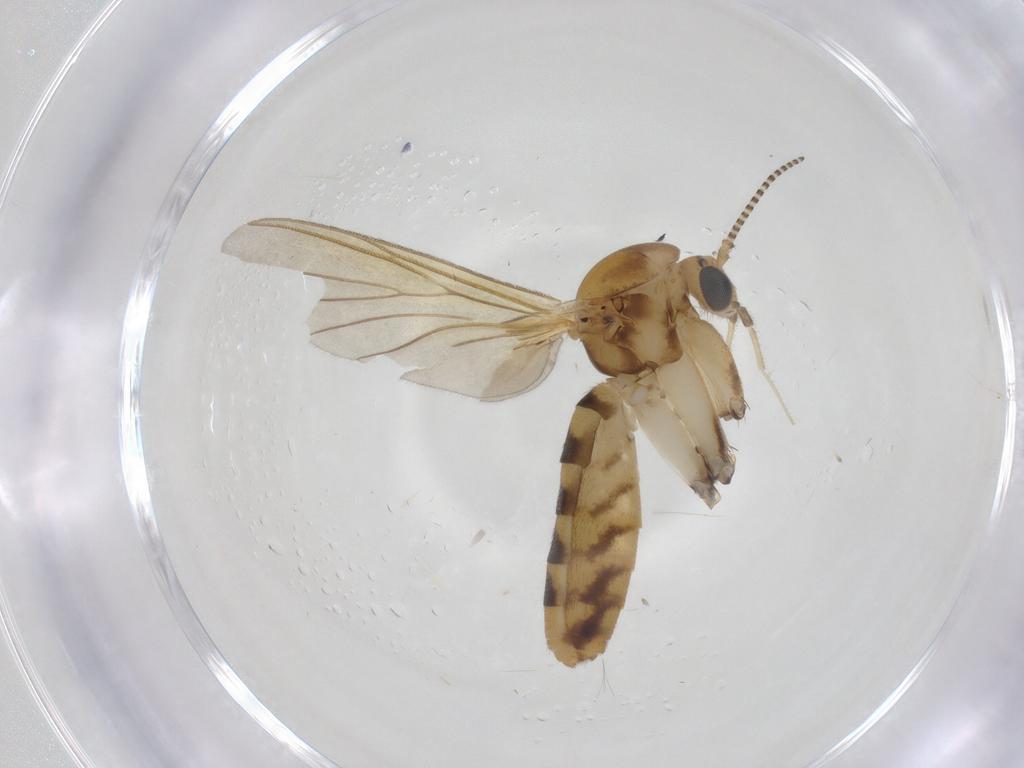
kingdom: Animalia
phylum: Arthropoda
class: Insecta
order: Diptera
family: Mycetophilidae
